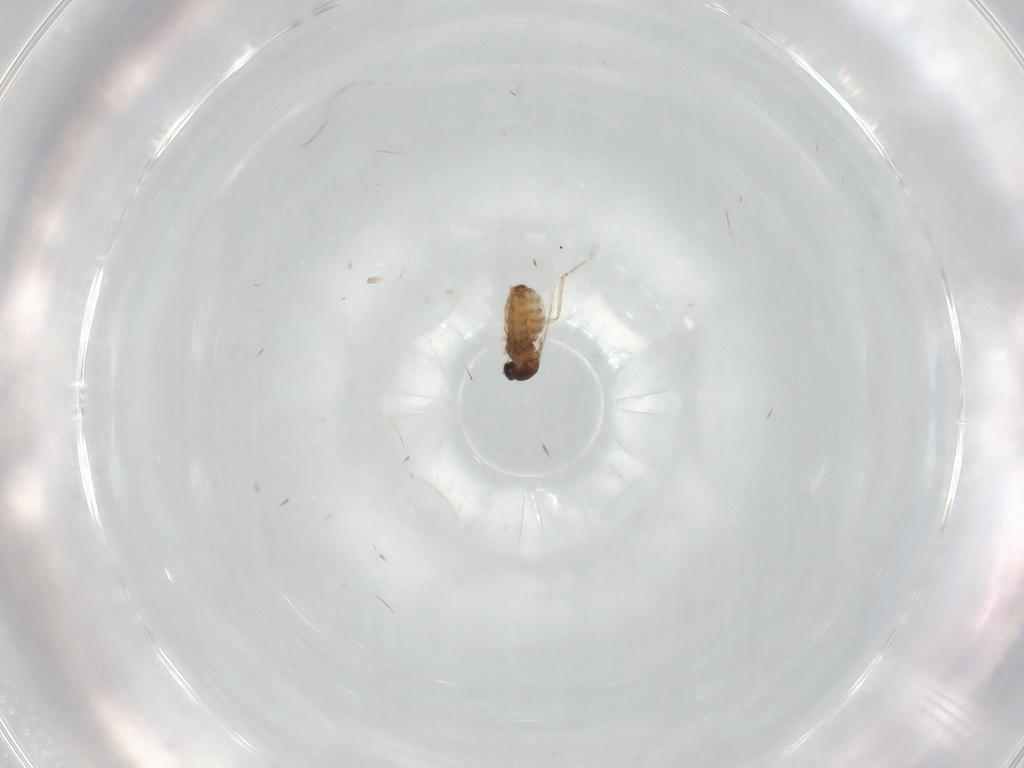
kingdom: Animalia
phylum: Arthropoda
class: Insecta
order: Diptera
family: Cecidomyiidae
